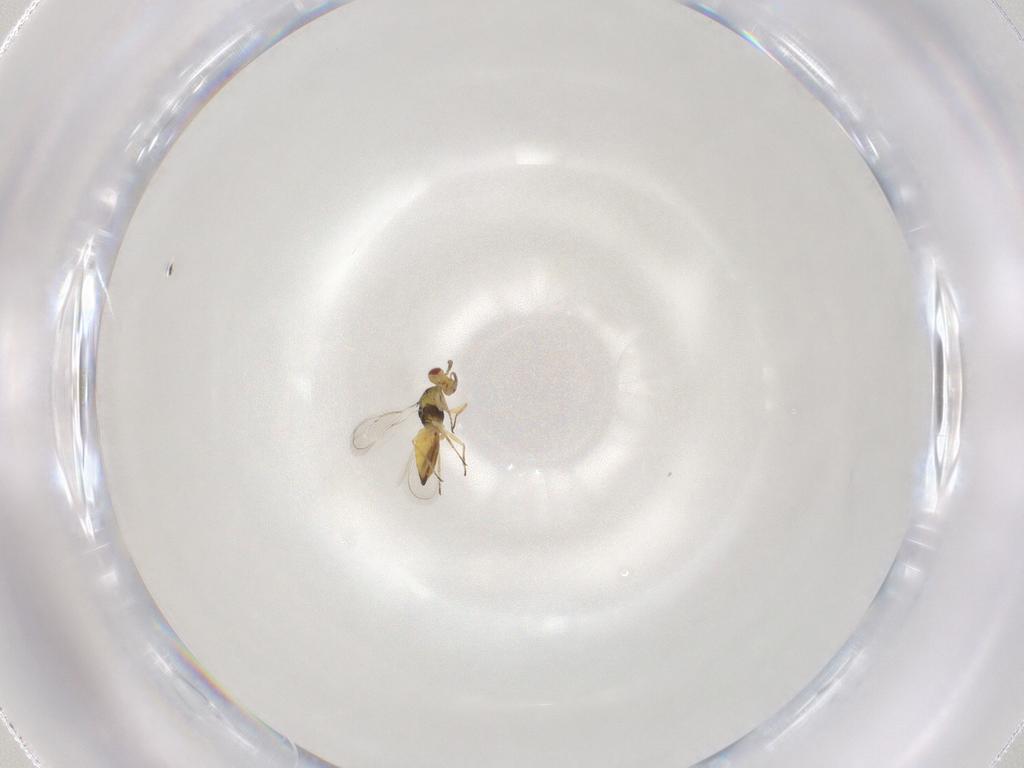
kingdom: Animalia
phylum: Arthropoda
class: Insecta
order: Hymenoptera
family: Eulophidae
